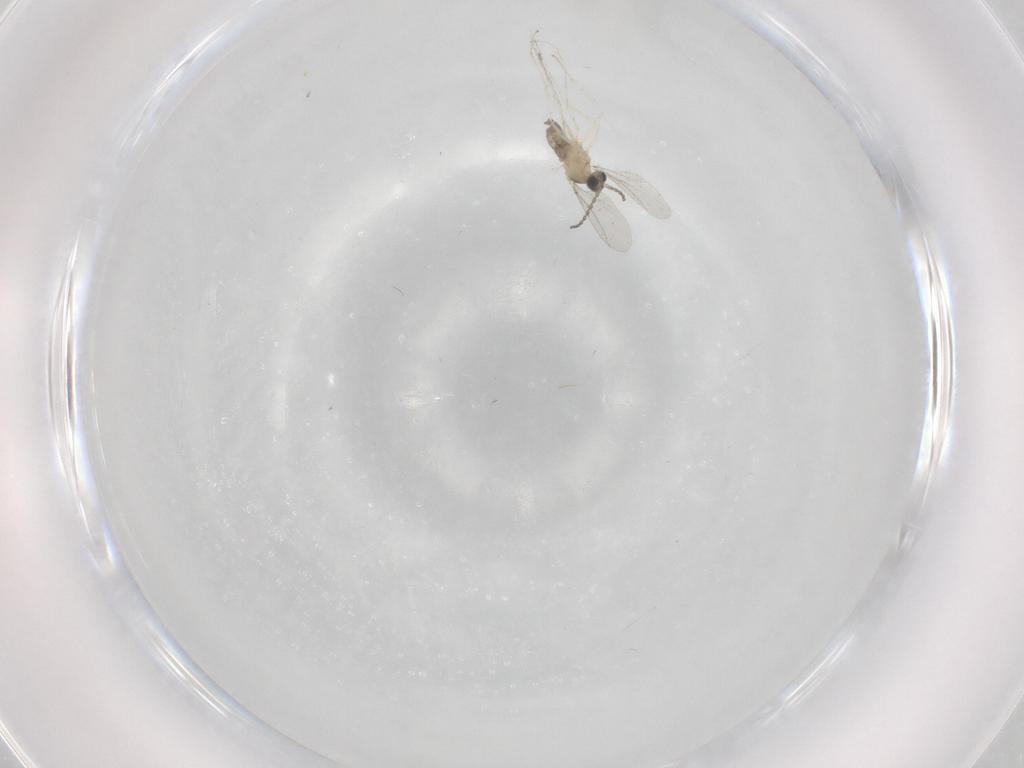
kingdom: Animalia
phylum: Arthropoda
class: Insecta
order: Diptera
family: Cecidomyiidae
